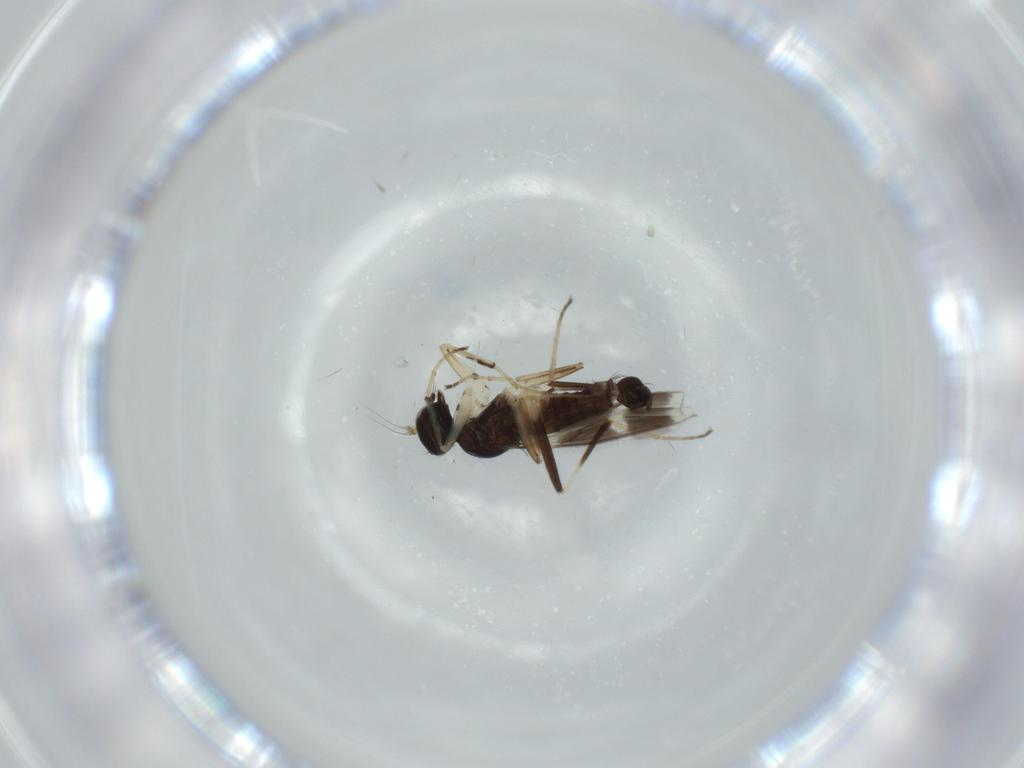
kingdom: Animalia
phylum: Arthropoda
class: Insecta
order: Diptera
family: Hybotidae
